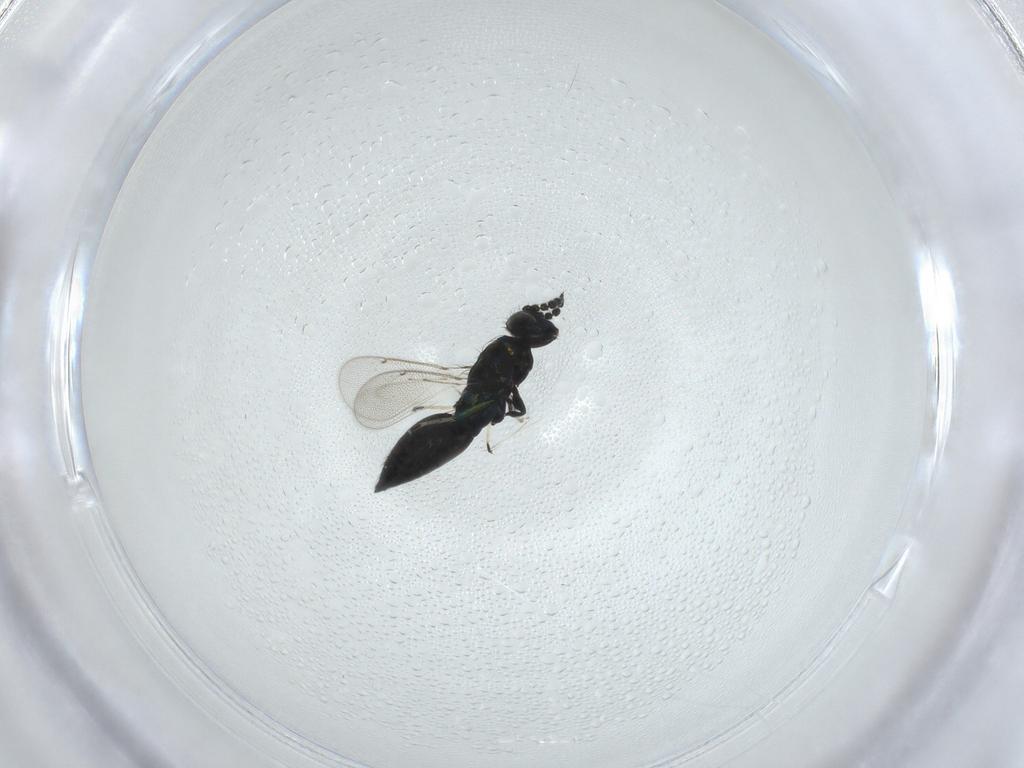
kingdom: Animalia
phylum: Arthropoda
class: Insecta
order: Hymenoptera
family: Eulophidae
